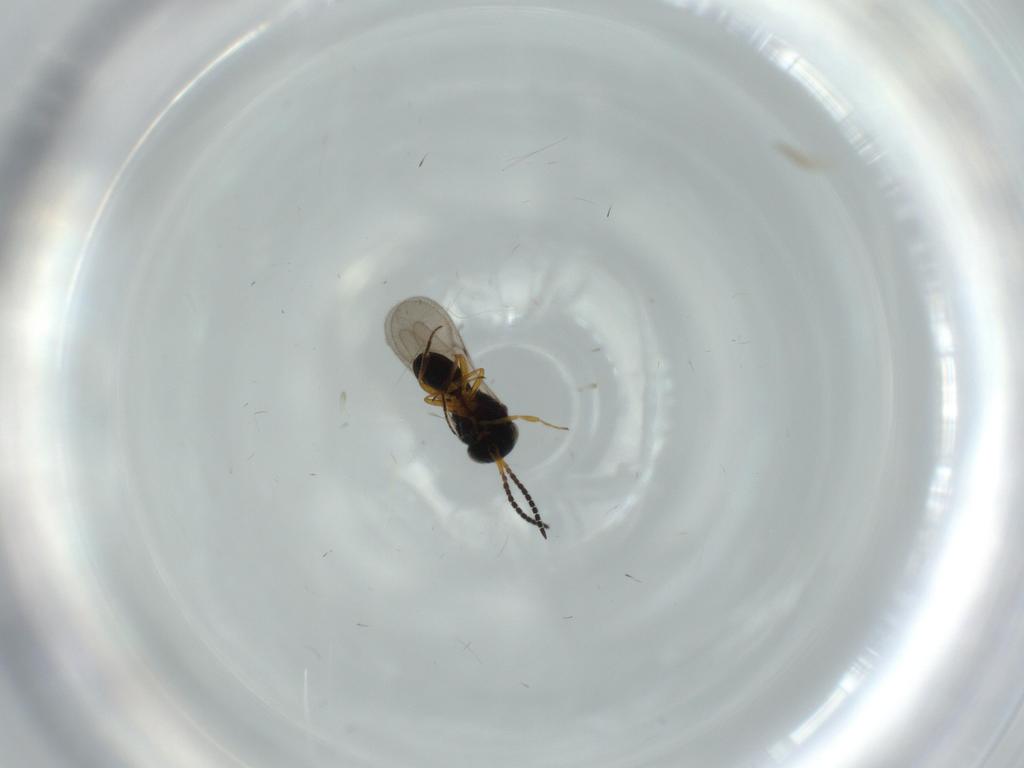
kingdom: Animalia
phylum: Arthropoda
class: Insecta
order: Hymenoptera
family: Scelionidae
